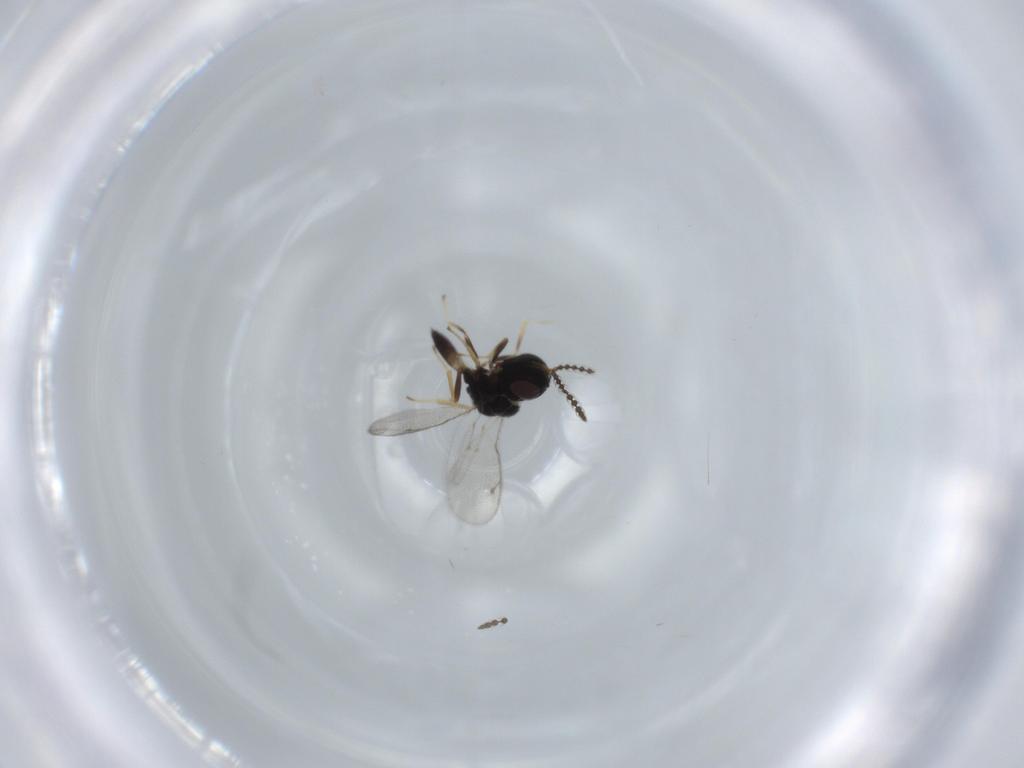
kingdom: Animalia
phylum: Arthropoda
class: Insecta
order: Hymenoptera
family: Pteromalidae
